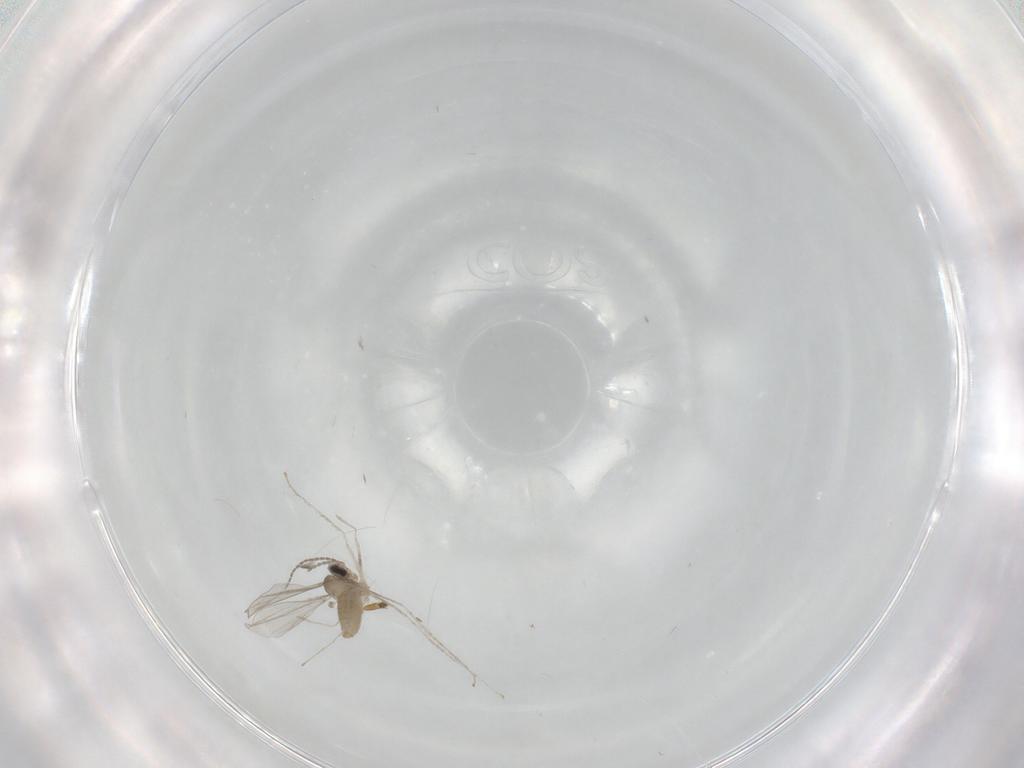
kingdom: Animalia
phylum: Arthropoda
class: Insecta
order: Diptera
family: Cecidomyiidae
